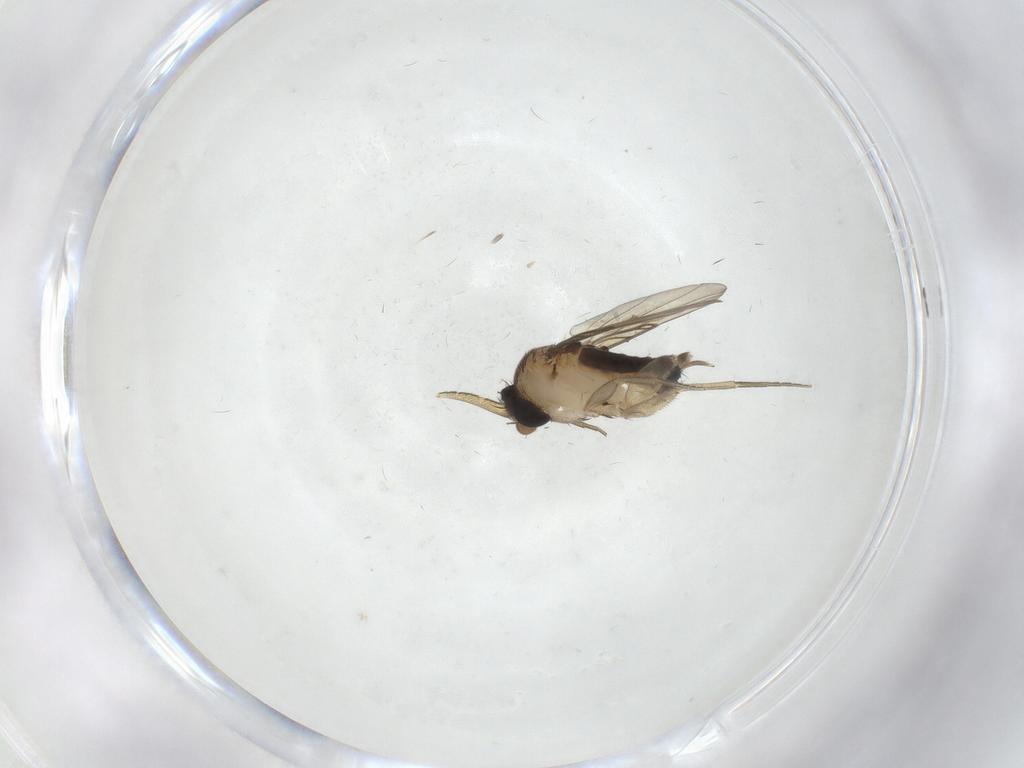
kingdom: Animalia
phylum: Arthropoda
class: Insecta
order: Diptera
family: Phoridae
